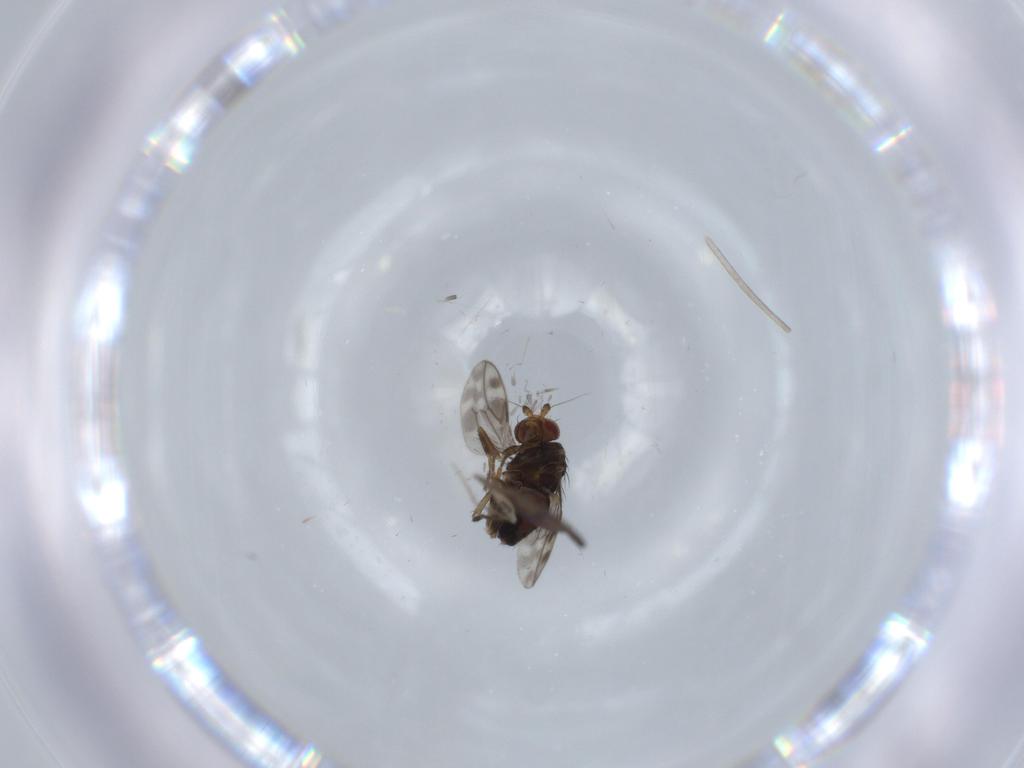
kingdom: Animalia
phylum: Arthropoda
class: Insecta
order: Diptera
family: Sphaeroceridae
